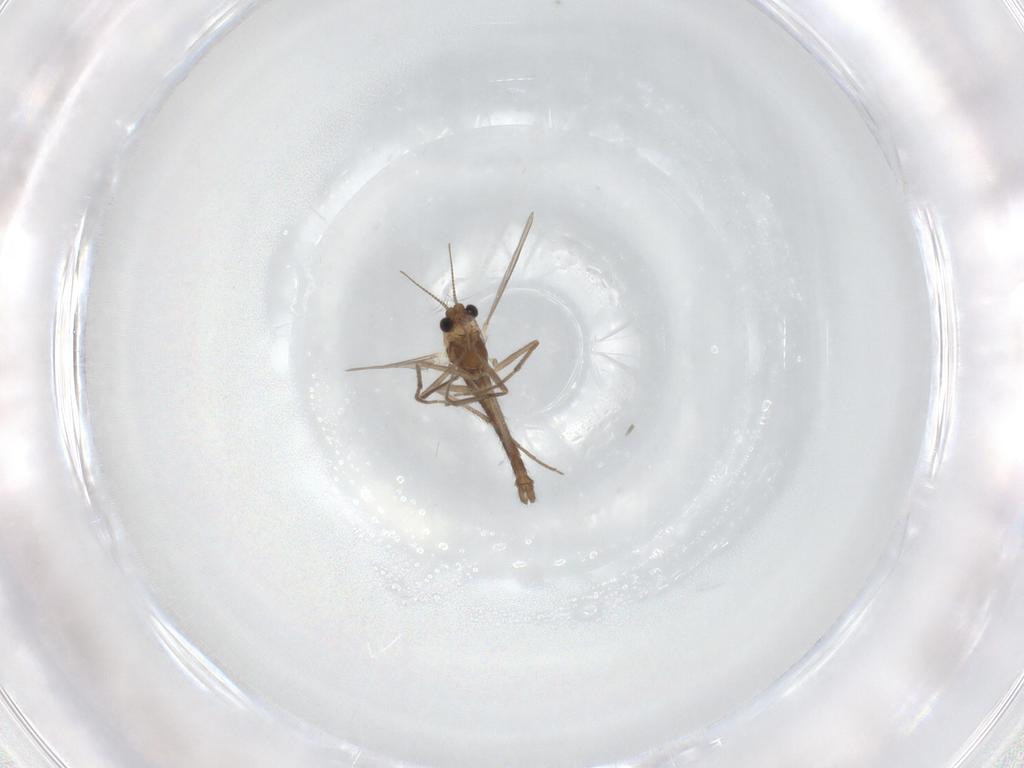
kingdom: Animalia
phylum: Arthropoda
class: Insecta
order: Diptera
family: Chironomidae
